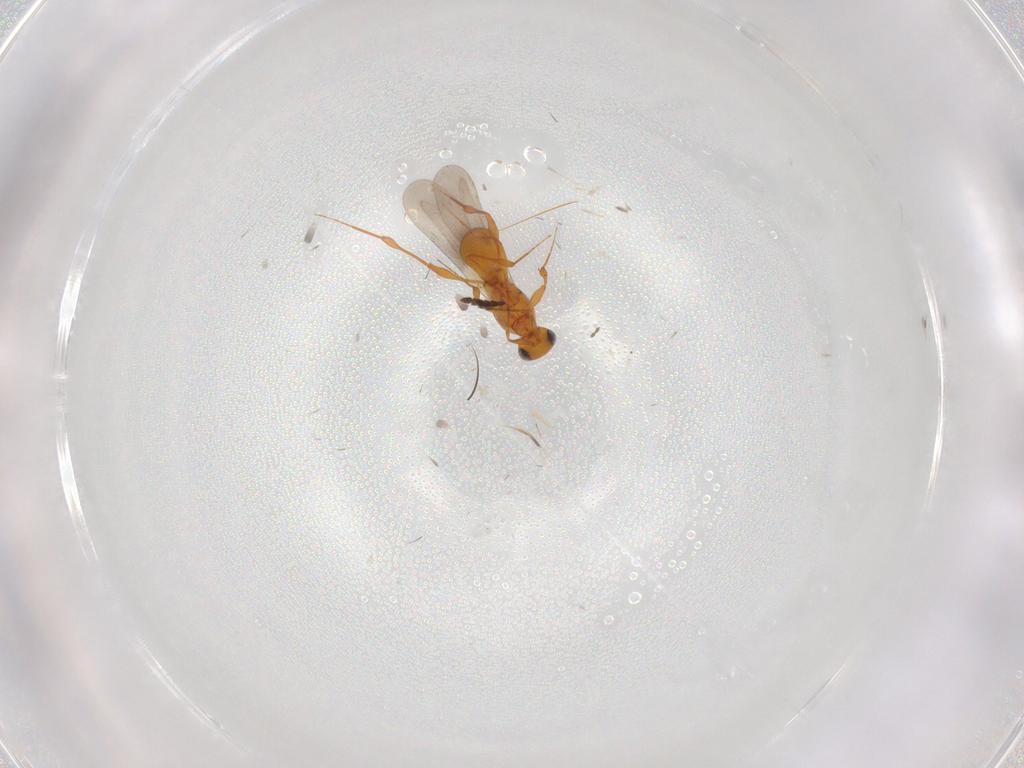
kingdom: Animalia
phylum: Arthropoda
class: Insecta
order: Hymenoptera
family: Platygastridae
